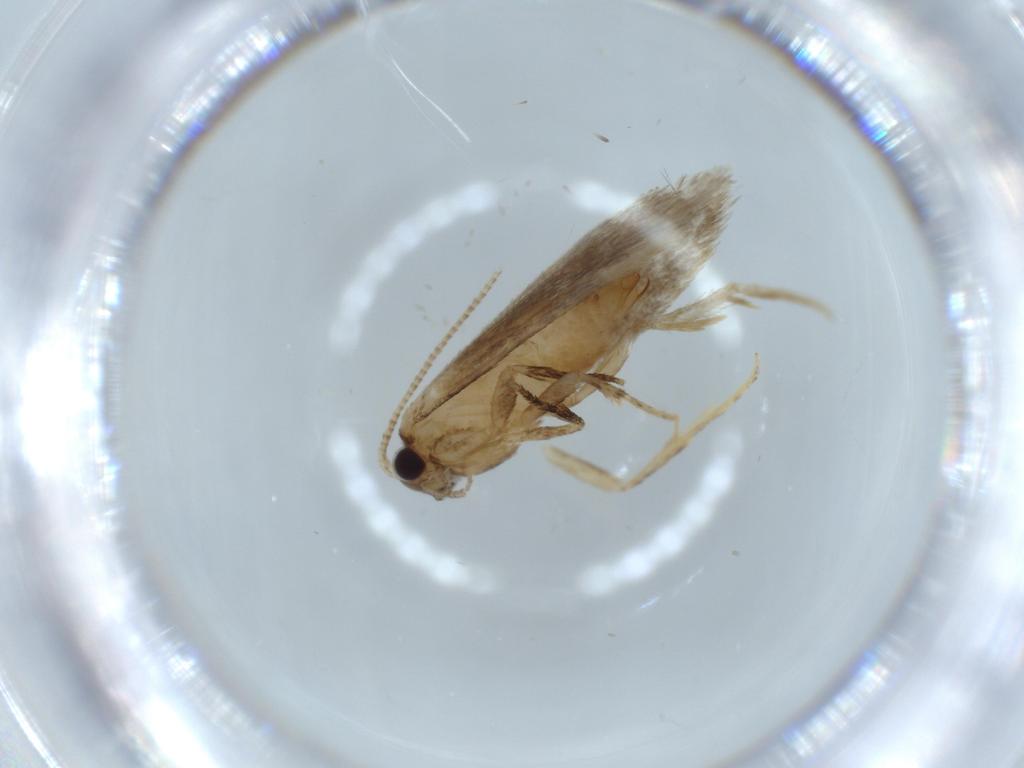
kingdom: Animalia
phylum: Arthropoda
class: Insecta
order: Lepidoptera
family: Tineidae
